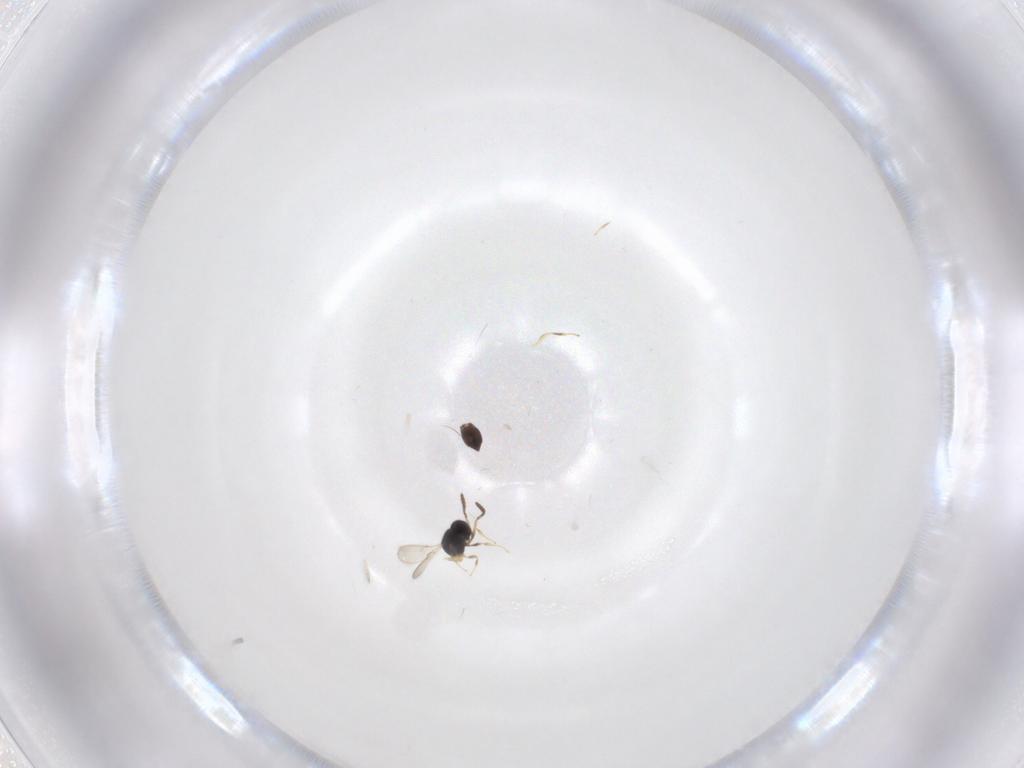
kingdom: Animalia
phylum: Arthropoda
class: Insecta
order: Hymenoptera
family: Scelionidae
